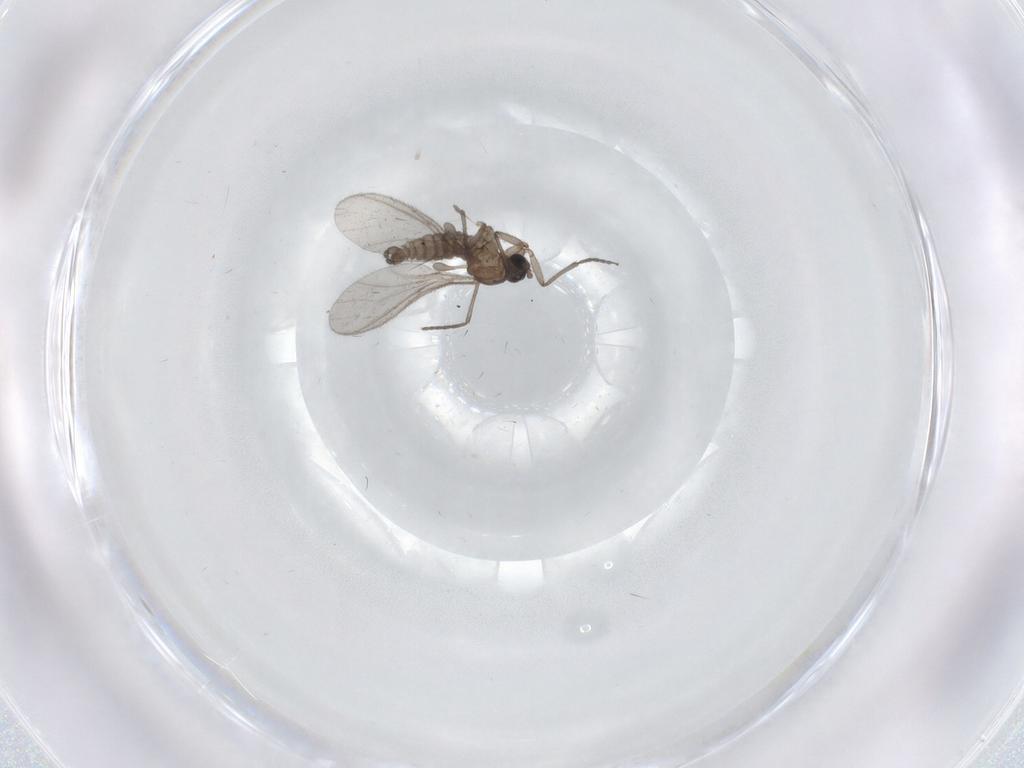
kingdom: Animalia
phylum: Arthropoda
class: Insecta
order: Diptera
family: Sciaridae
